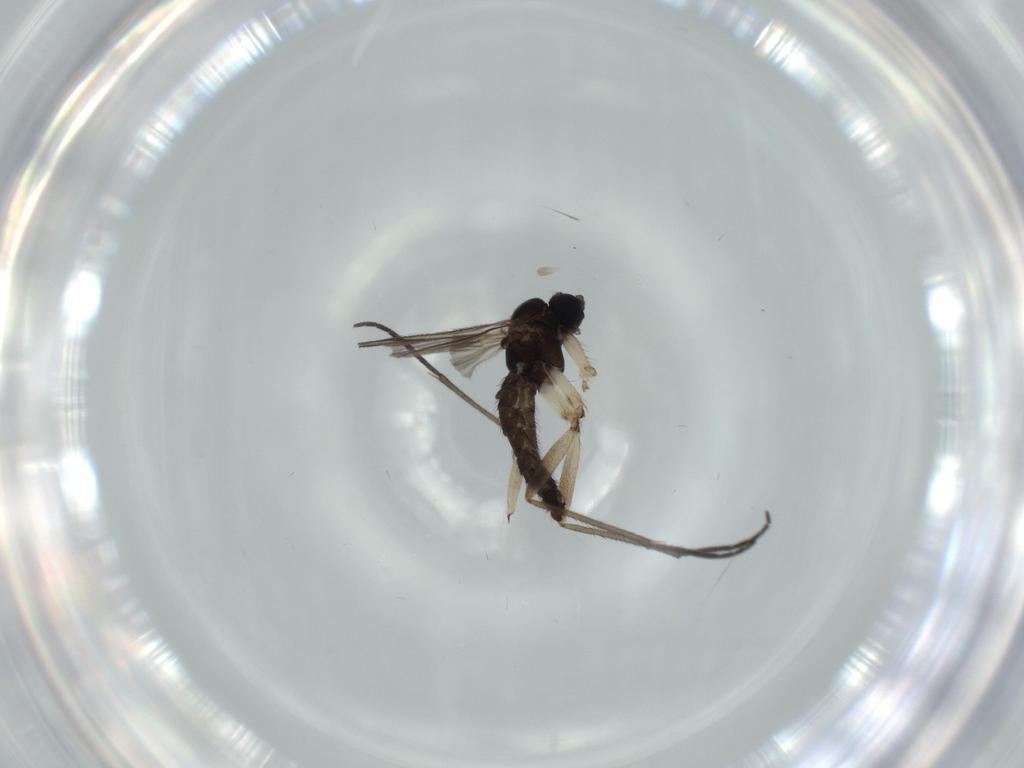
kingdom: Animalia
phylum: Arthropoda
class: Insecta
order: Diptera
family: Sciaridae
